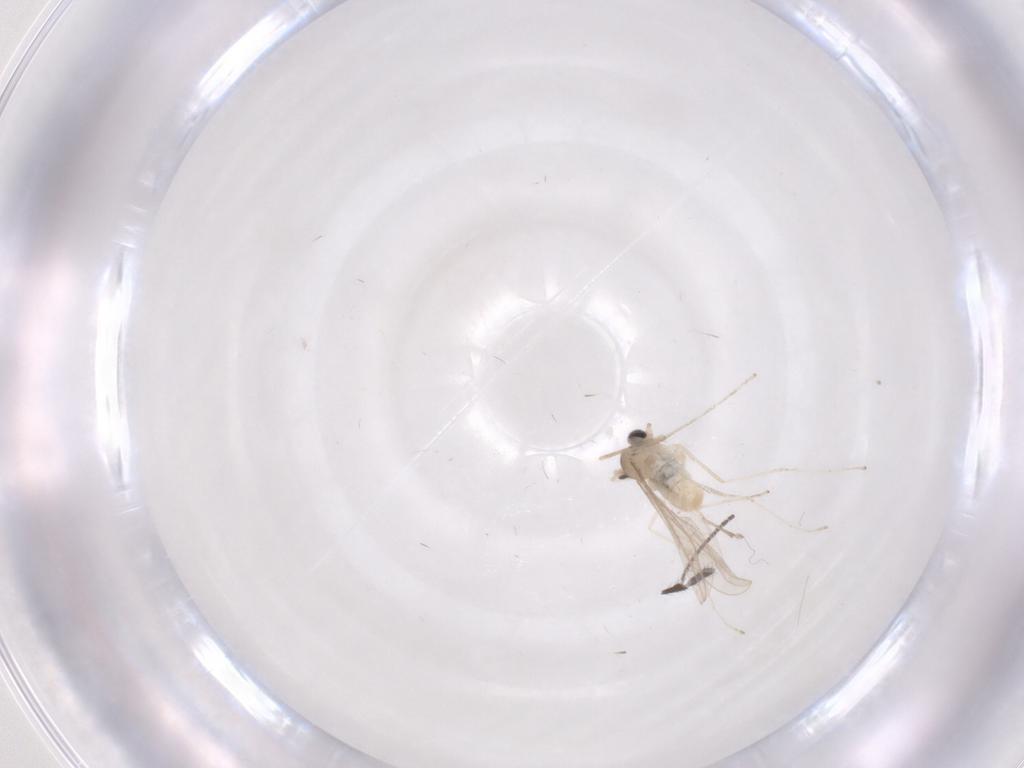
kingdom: Animalia
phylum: Arthropoda
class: Insecta
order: Diptera
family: Cecidomyiidae
